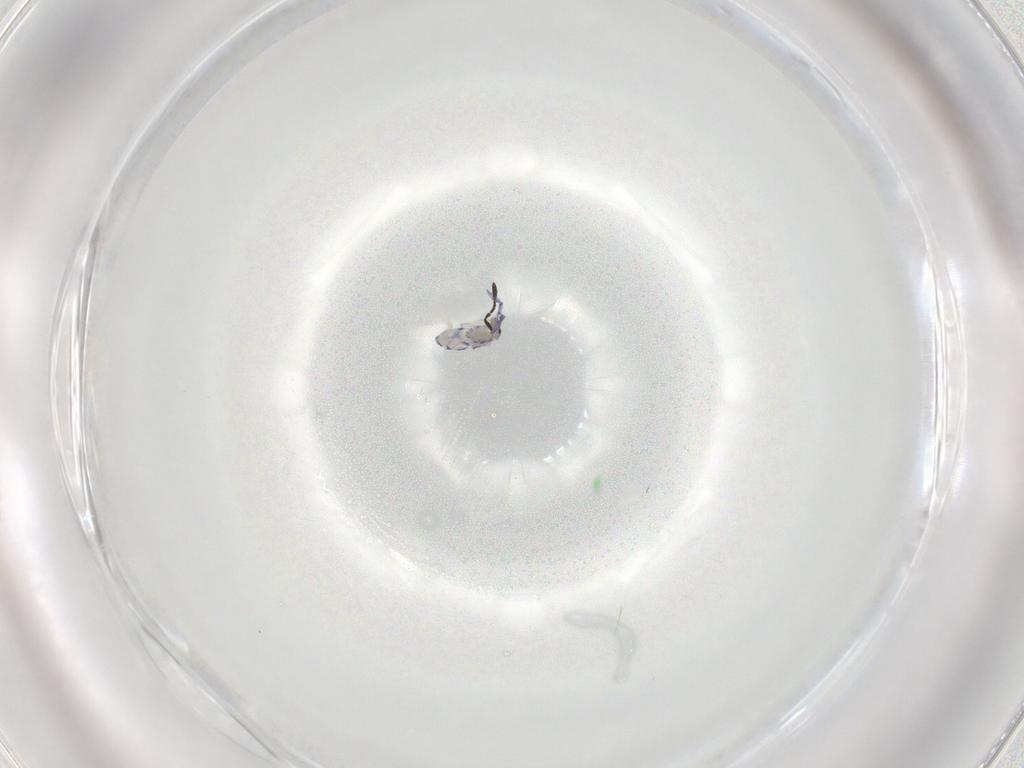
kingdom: Animalia
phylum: Arthropoda
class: Collembola
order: Entomobryomorpha
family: Entomobryidae
